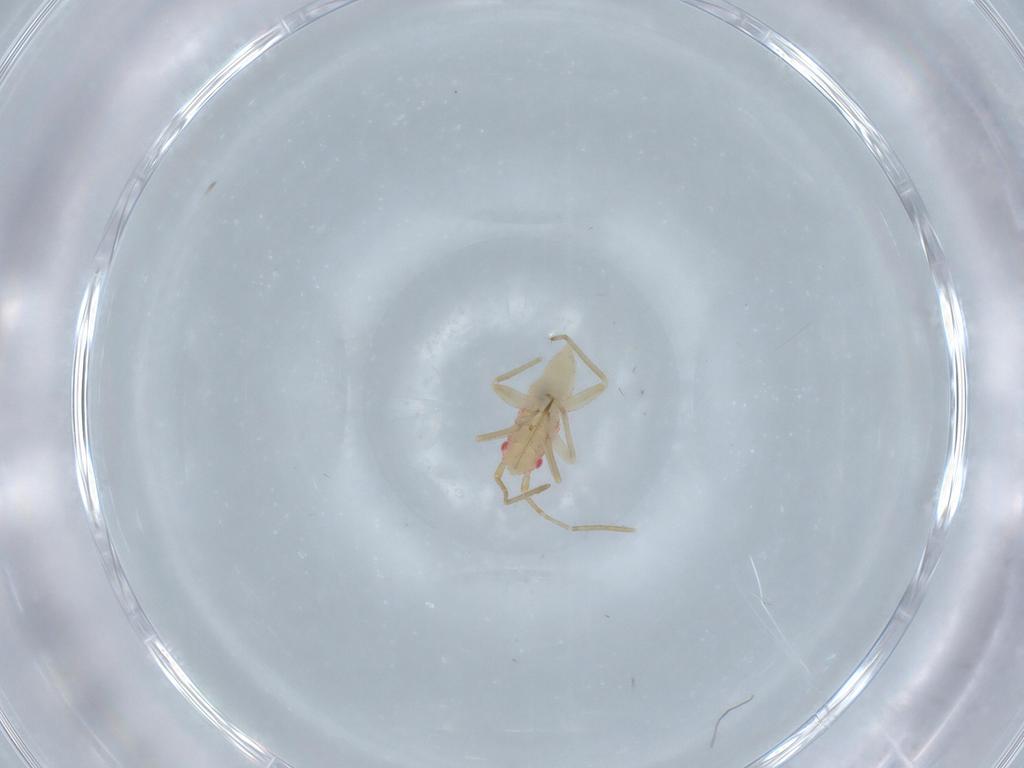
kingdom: Animalia
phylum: Arthropoda
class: Insecta
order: Hemiptera
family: Miridae
